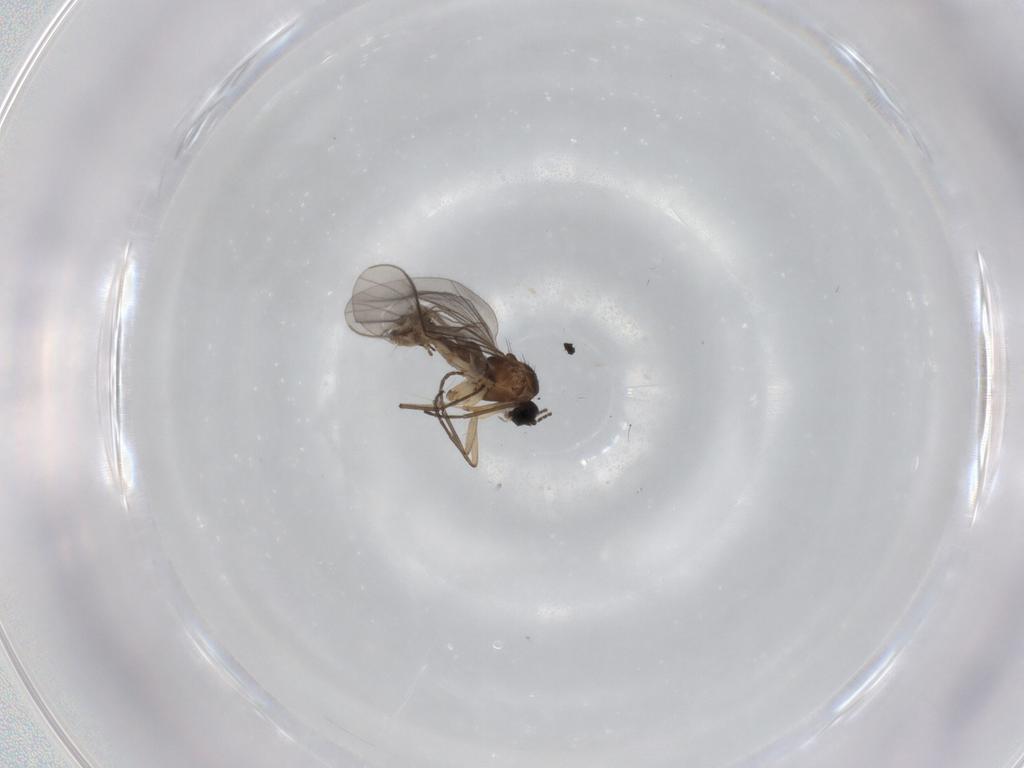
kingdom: Animalia
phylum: Arthropoda
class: Insecta
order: Diptera
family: Sciaridae
